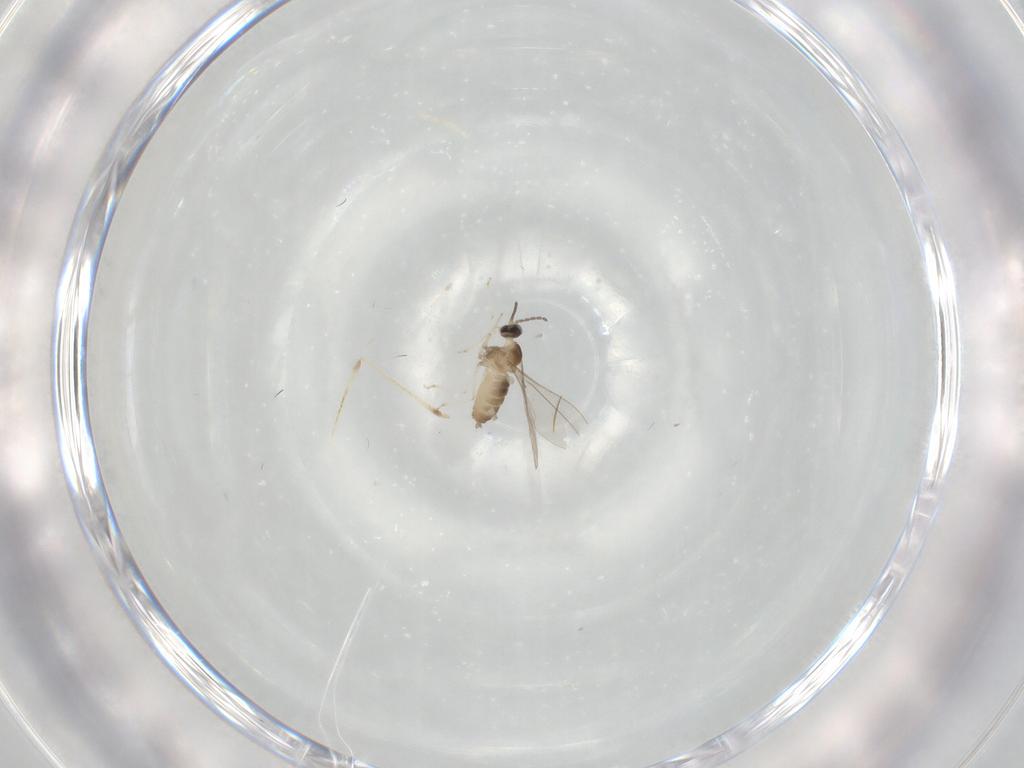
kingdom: Animalia
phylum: Arthropoda
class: Insecta
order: Diptera
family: Cecidomyiidae
